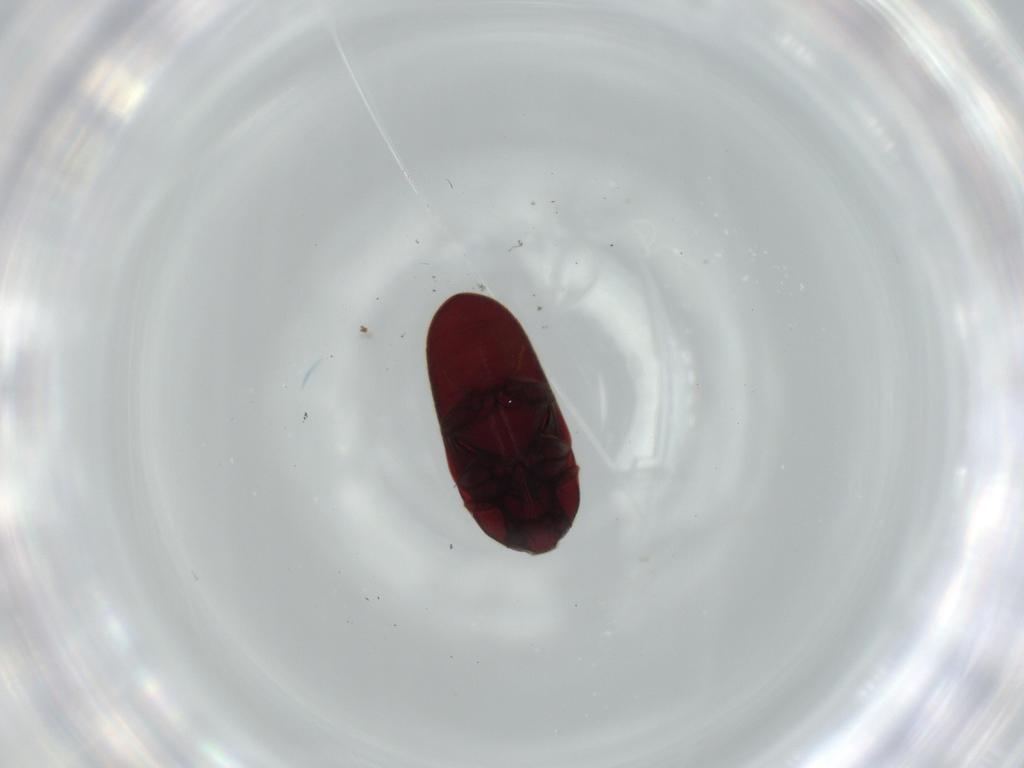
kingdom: Animalia
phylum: Arthropoda
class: Insecta
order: Coleoptera
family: Throscidae
